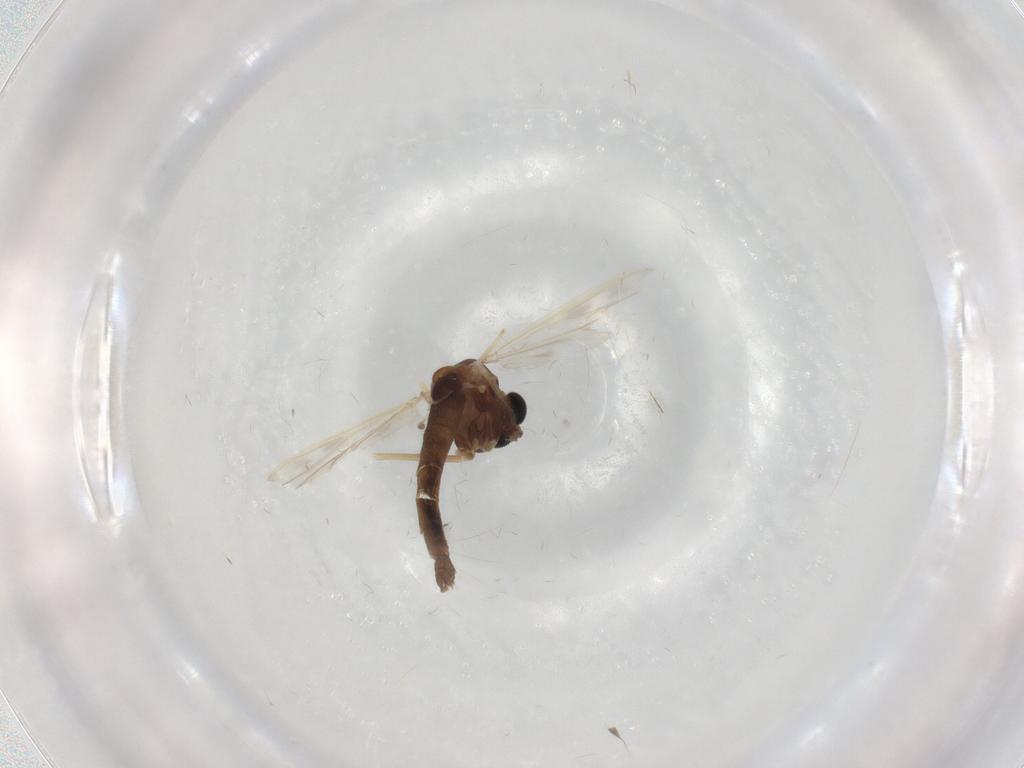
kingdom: Animalia
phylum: Arthropoda
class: Insecta
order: Diptera
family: Chironomidae
